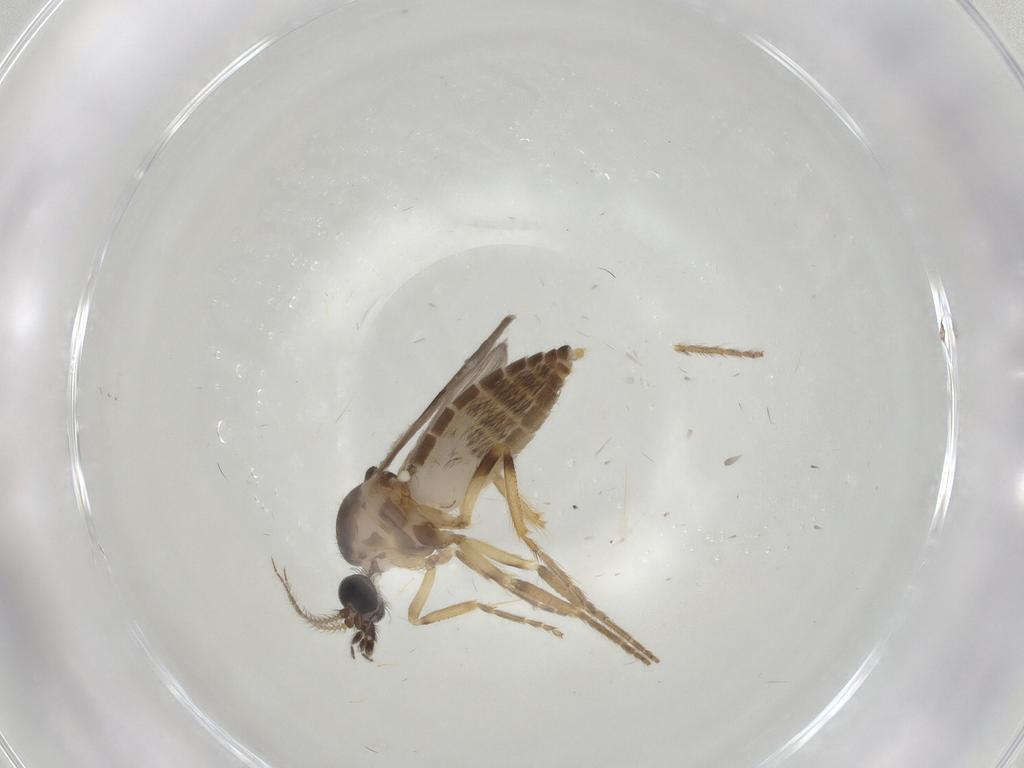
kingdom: Animalia
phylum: Arthropoda
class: Insecta
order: Diptera
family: Ceratopogonidae
